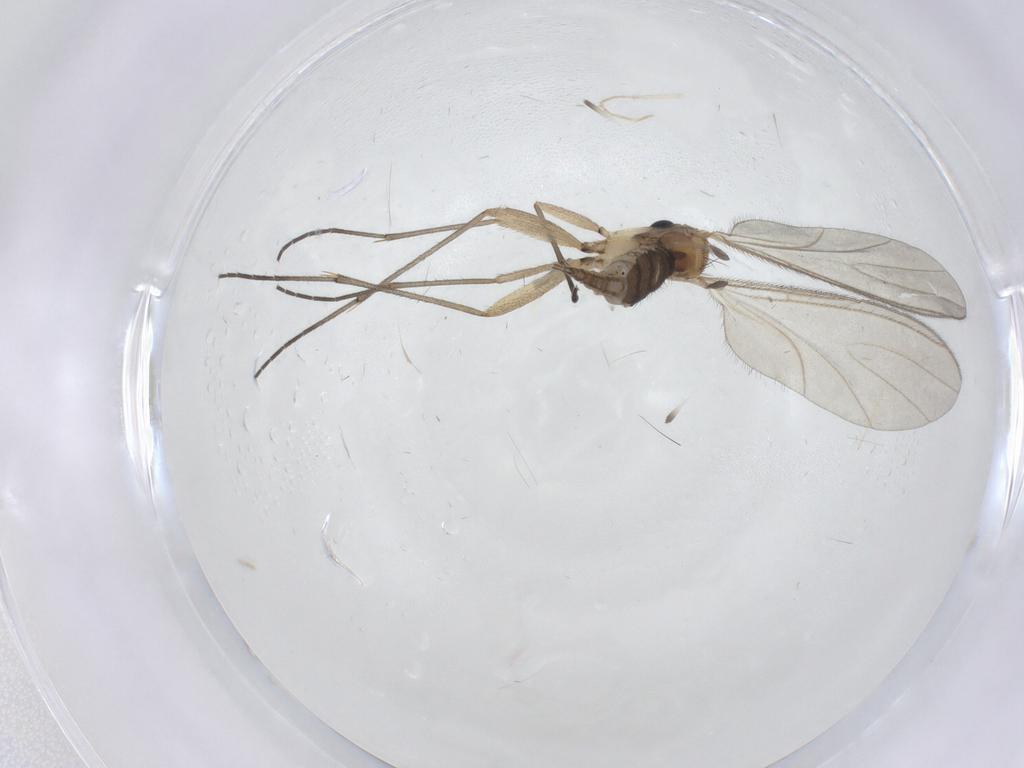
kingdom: Animalia
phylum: Arthropoda
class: Insecta
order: Diptera
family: Sciaridae
